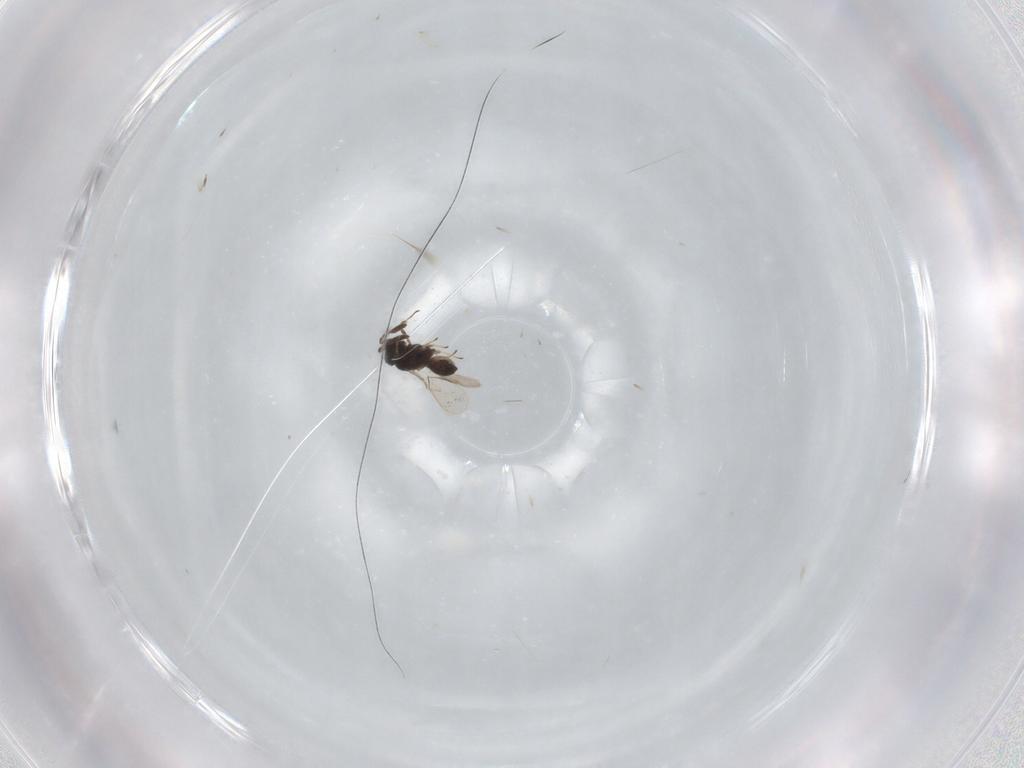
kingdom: Animalia
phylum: Arthropoda
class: Insecta
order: Hymenoptera
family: Scelionidae
